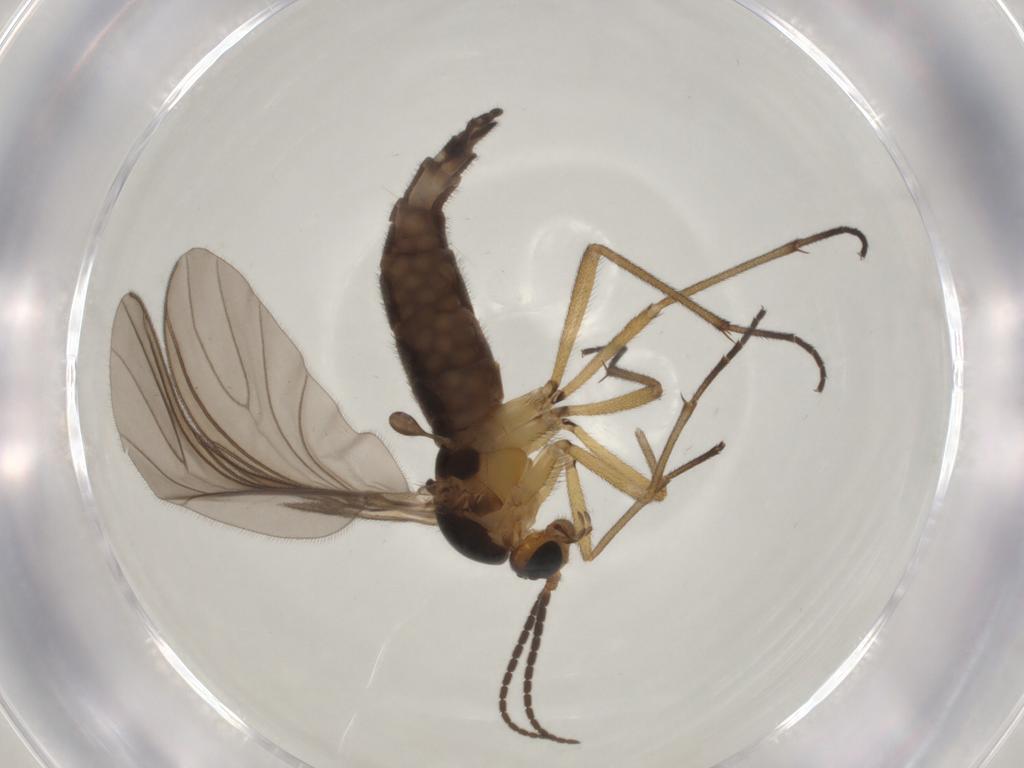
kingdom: Animalia
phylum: Arthropoda
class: Insecta
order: Diptera
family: Sciaridae
